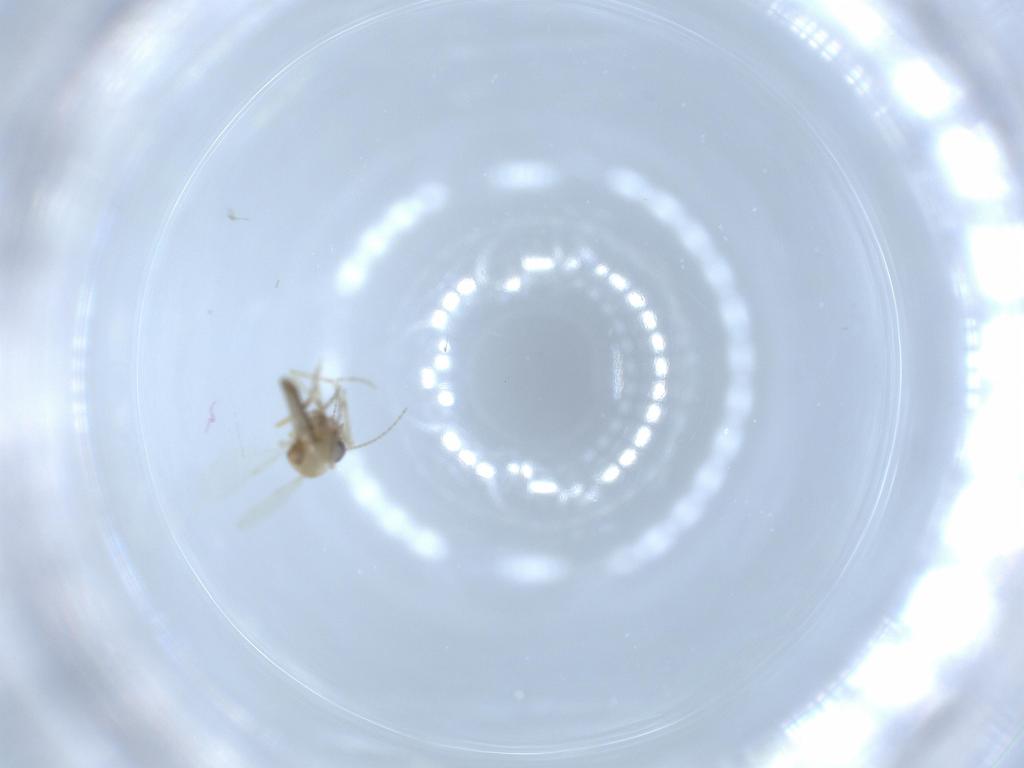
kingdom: Animalia
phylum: Arthropoda
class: Insecta
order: Diptera
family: Ceratopogonidae
